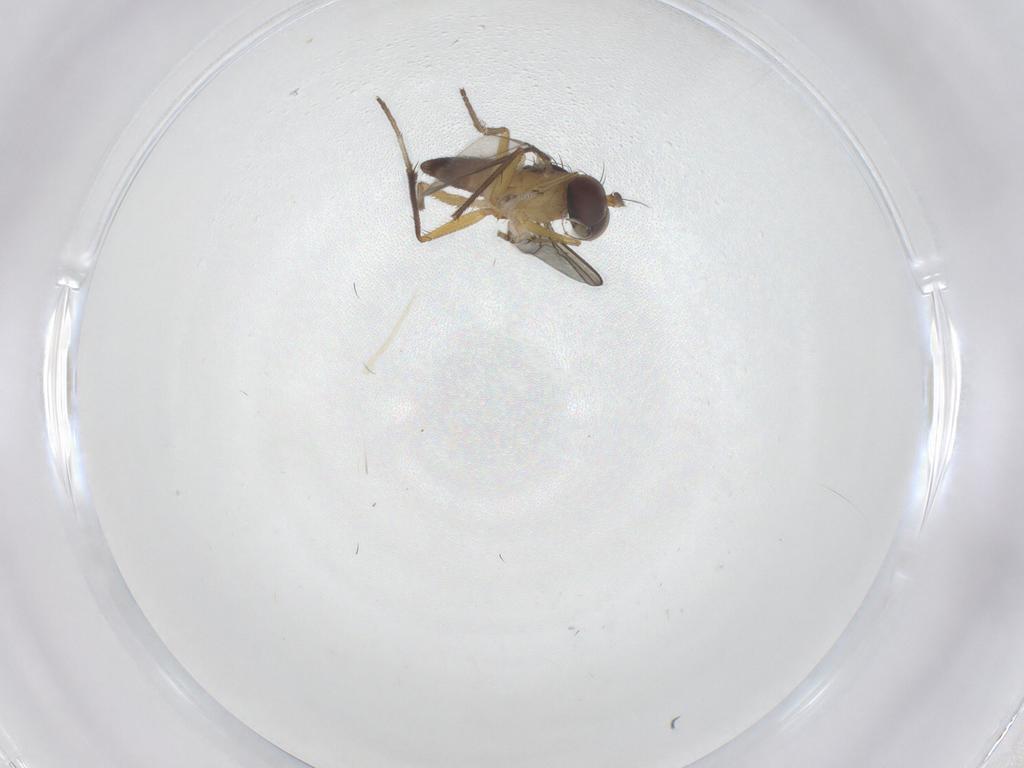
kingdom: Animalia
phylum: Arthropoda
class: Insecta
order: Diptera
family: Dolichopodidae
